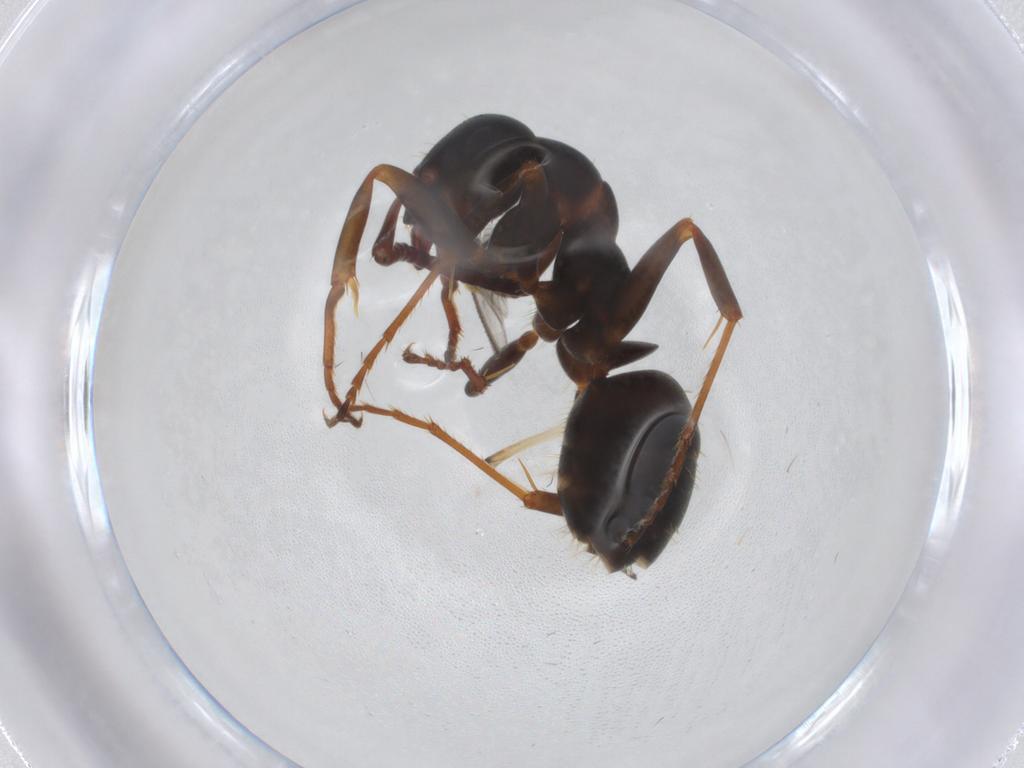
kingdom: Animalia
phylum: Arthropoda
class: Insecta
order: Hymenoptera
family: Formicidae
